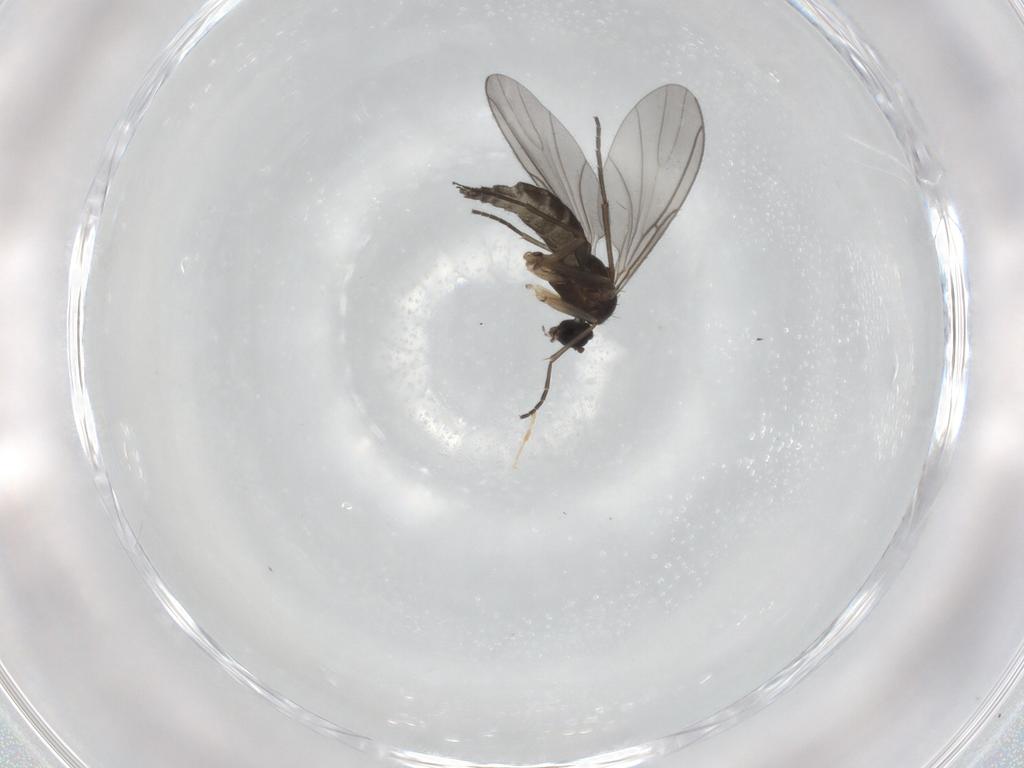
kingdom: Animalia
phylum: Arthropoda
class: Insecta
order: Diptera
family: Sciaridae
